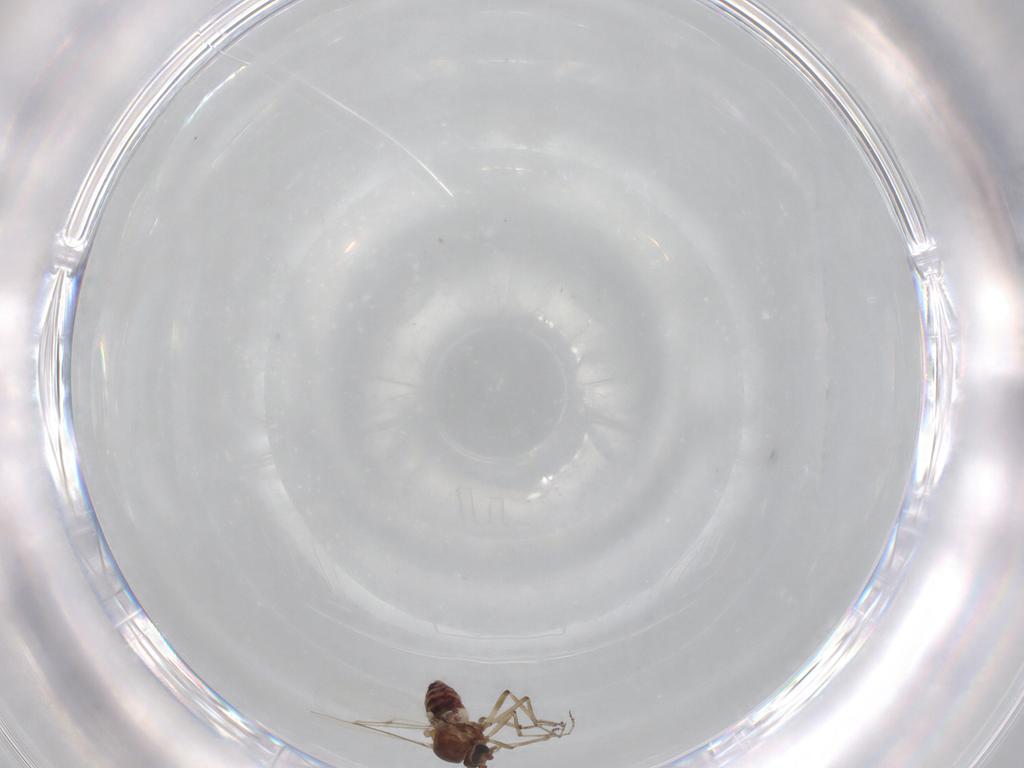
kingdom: Animalia
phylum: Arthropoda
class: Insecta
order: Diptera
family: Ceratopogonidae
